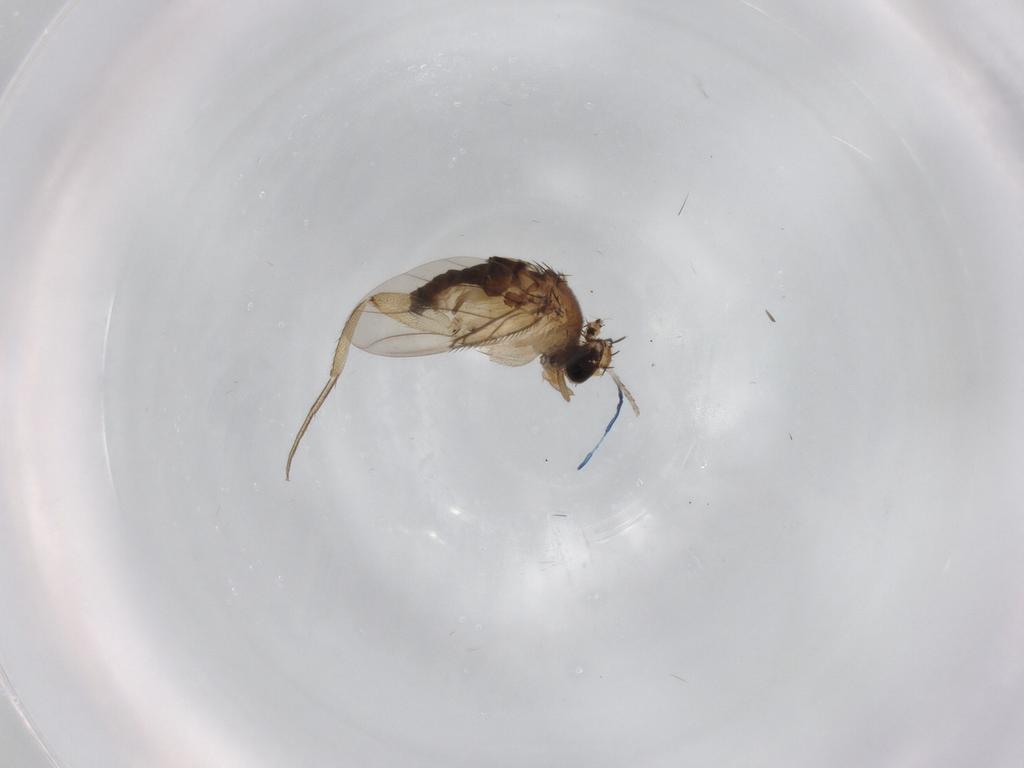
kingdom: Animalia
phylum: Arthropoda
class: Insecta
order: Diptera
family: Phoridae
